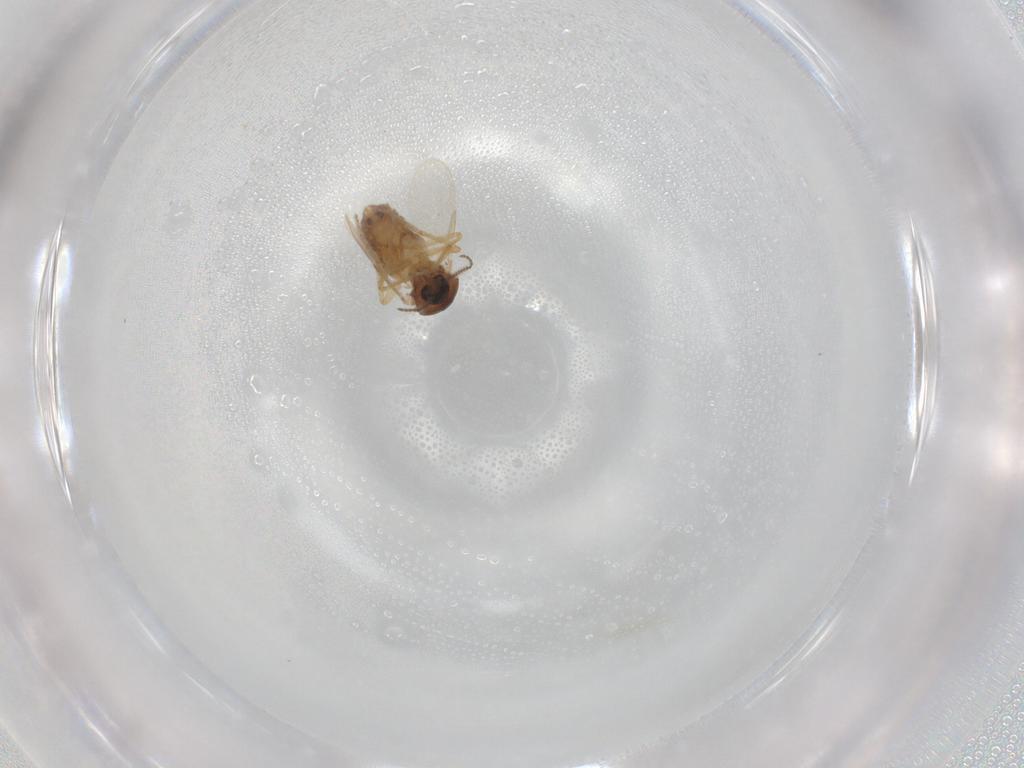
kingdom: Animalia
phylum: Arthropoda
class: Insecta
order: Diptera
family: Ceratopogonidae
